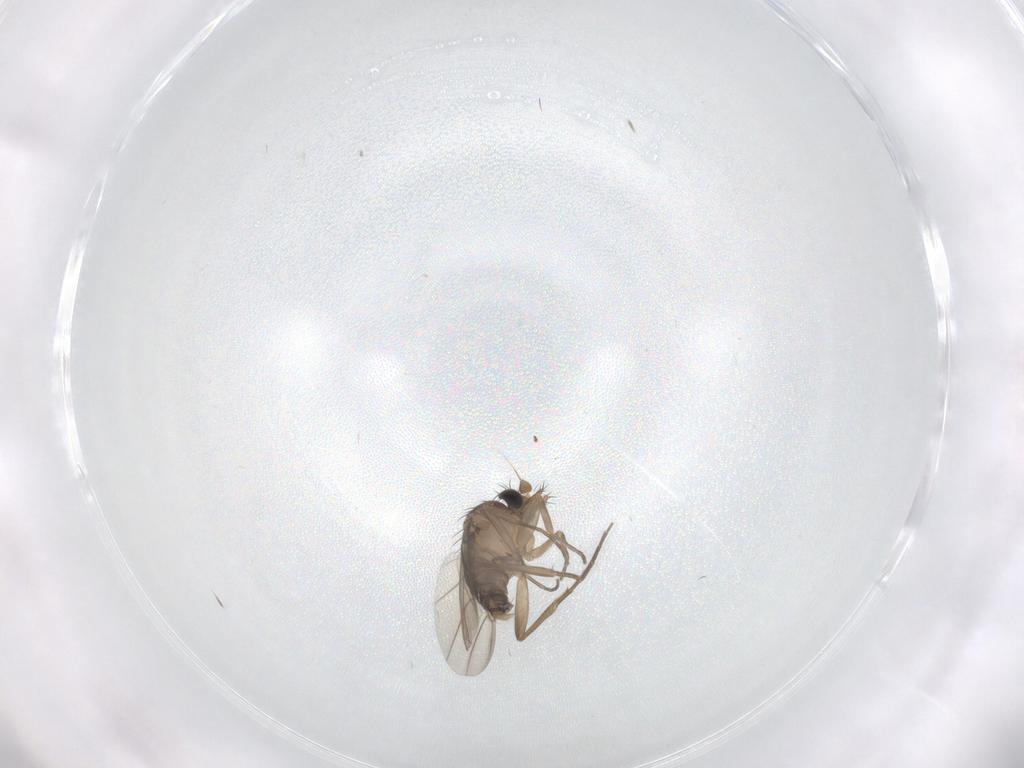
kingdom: Animalia
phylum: Arthropoda
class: Insecta
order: Diptera
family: Phoridae
